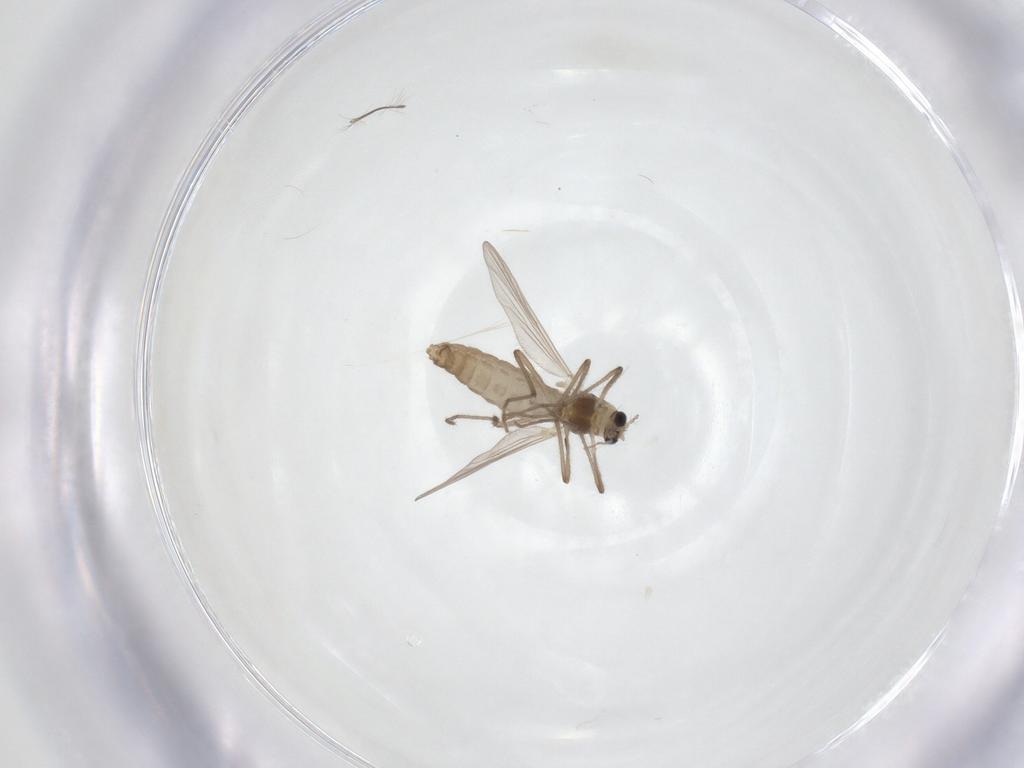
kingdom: Animalia
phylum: Arthropoda
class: Insecta
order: Diptera
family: Chironomidae
